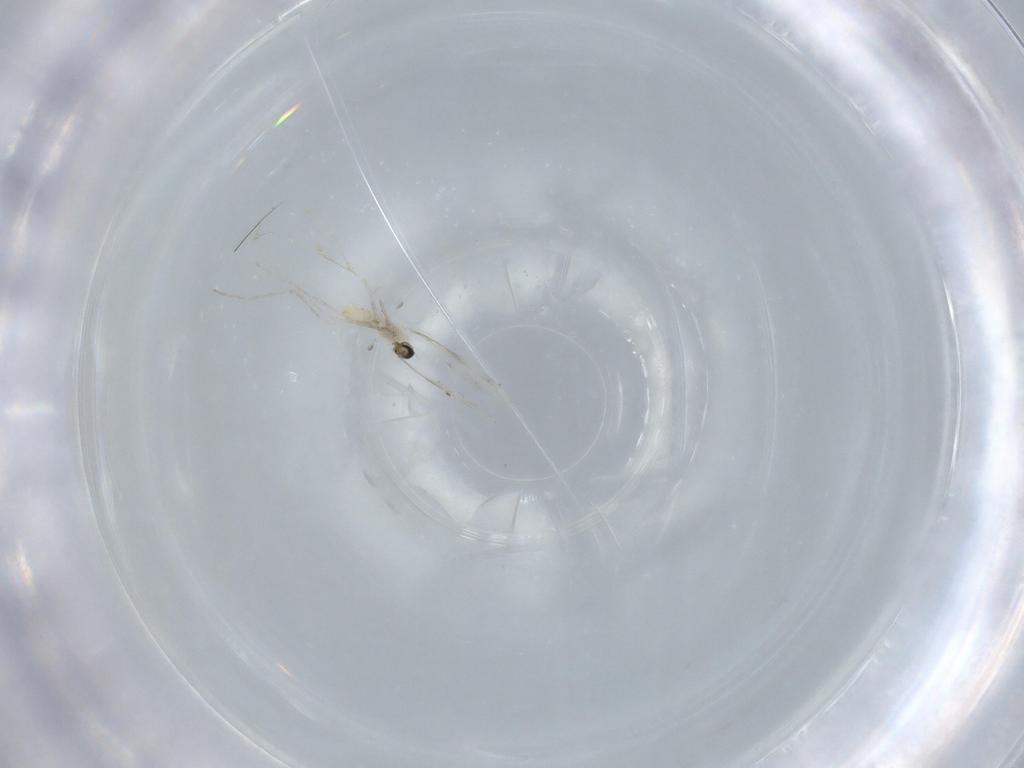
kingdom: Animalia
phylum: Arthropoda
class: Insecta
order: Diptera
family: Cecidomyiidae
